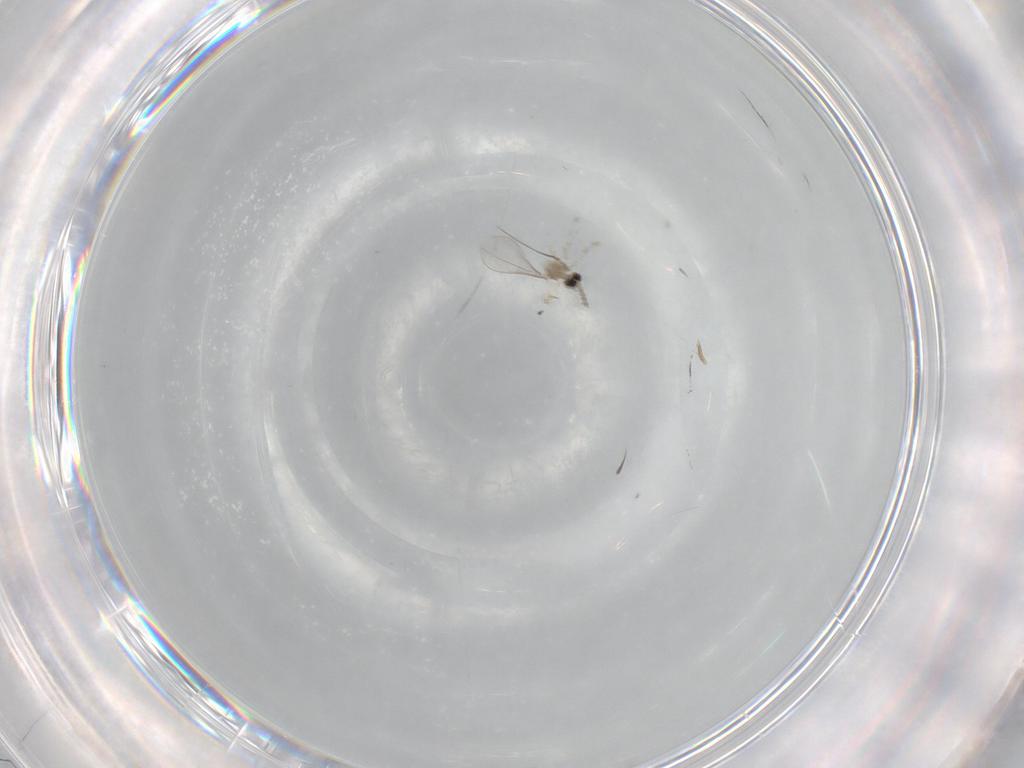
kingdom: Animalia
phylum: Arthropoda
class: Insecta
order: Diptera
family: Cecidomyiidae
